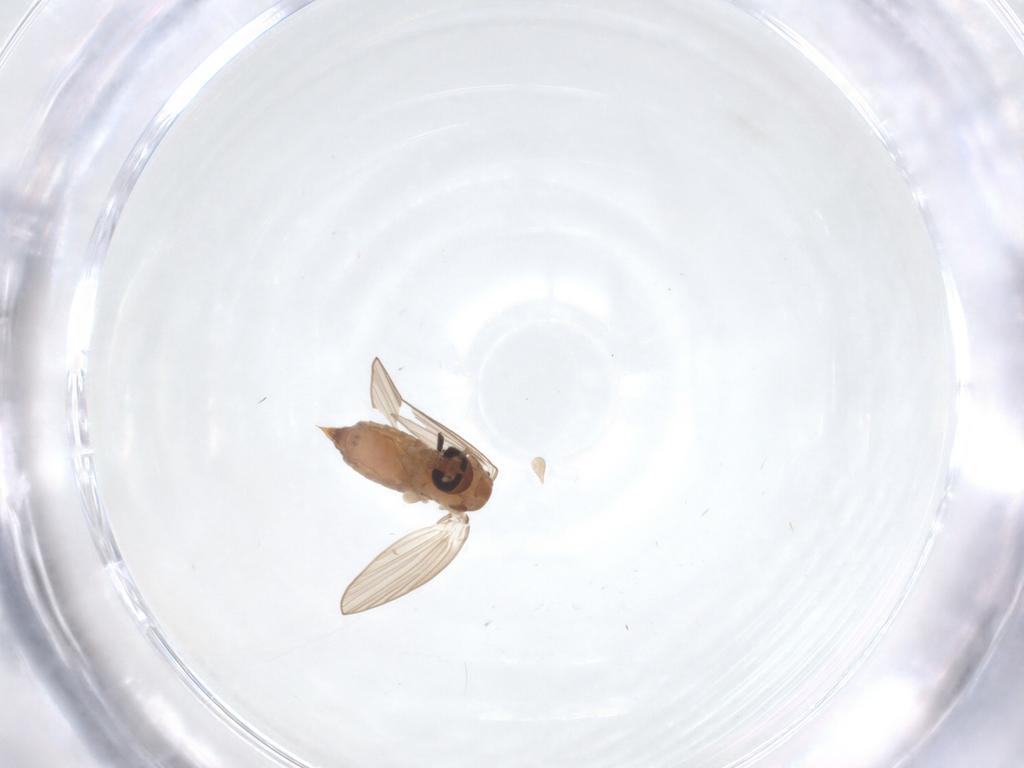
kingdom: Animalia
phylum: Arthropoda
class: Insecta
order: Diptera
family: Psychodidae
